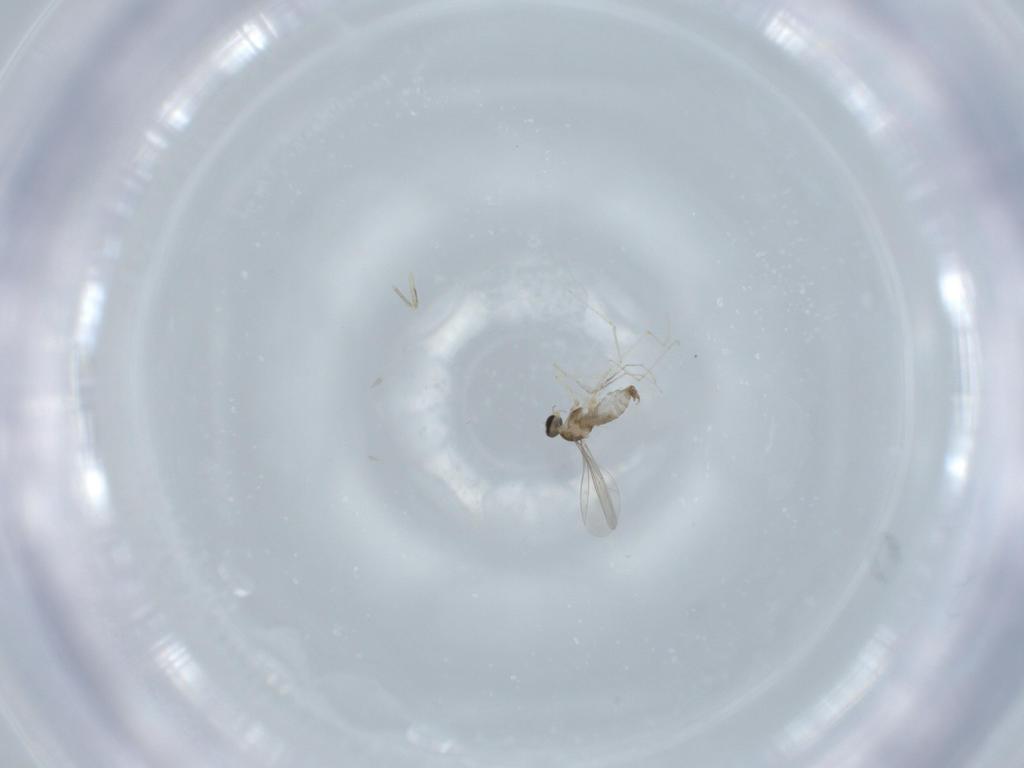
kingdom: Animalia
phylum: Arthropoda
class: Insecta
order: Diptera
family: Cecidomyiidae
